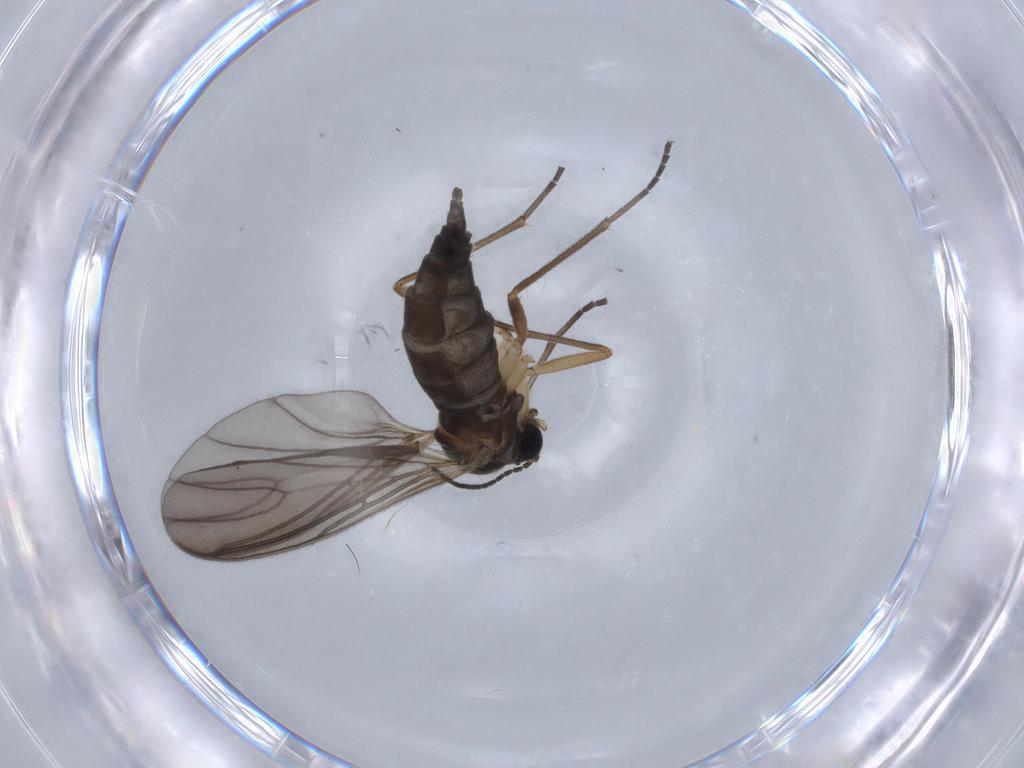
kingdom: Animalia
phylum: Arthropoda
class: Insecta
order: Diptera
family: Sciaridae
